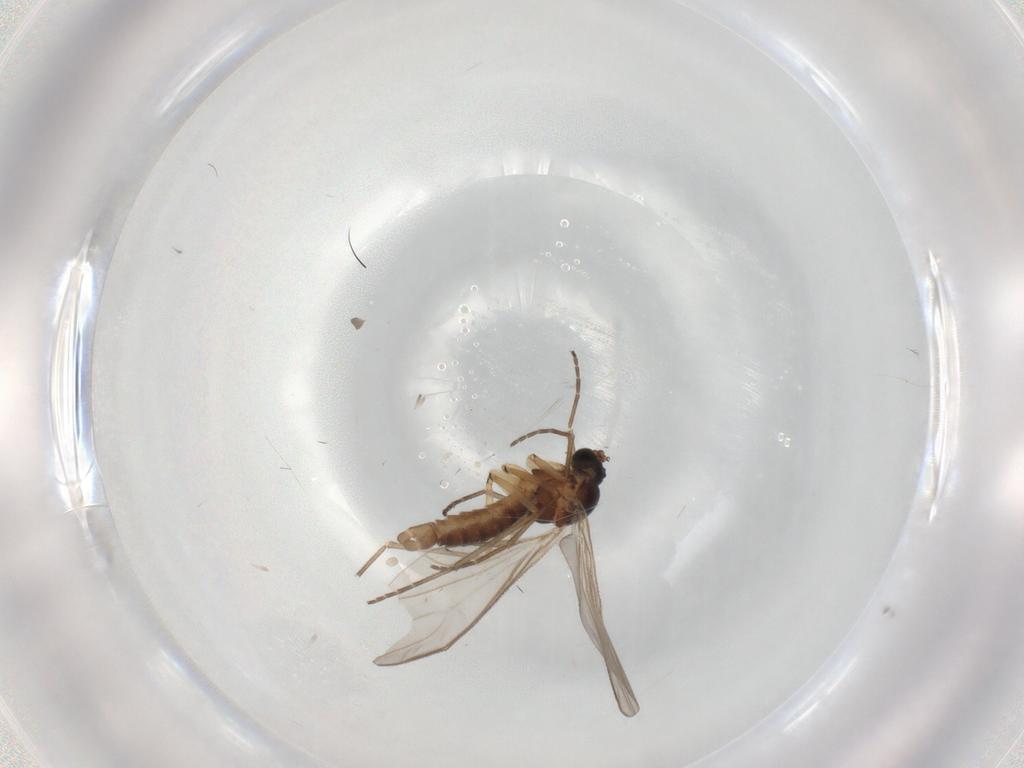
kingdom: Animalia
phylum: Arthropoda
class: Insecta
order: Diptera
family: Sciaridae
